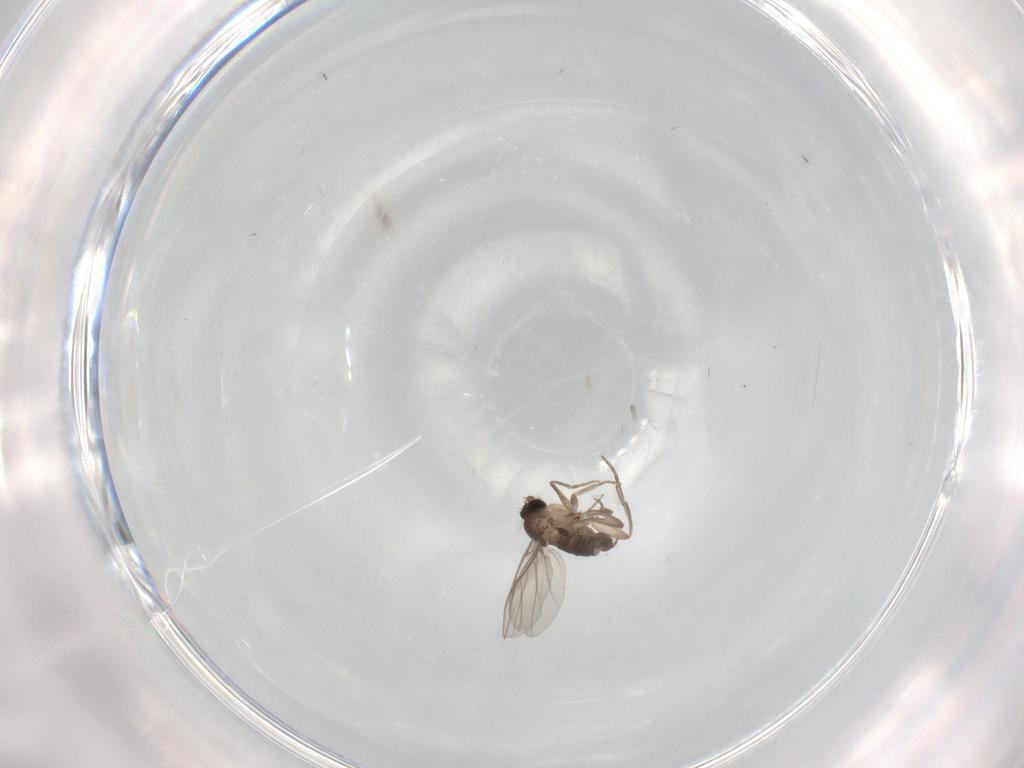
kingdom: Animalia
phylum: Arthropoda
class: Insecta
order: Diptera
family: Phoridae
